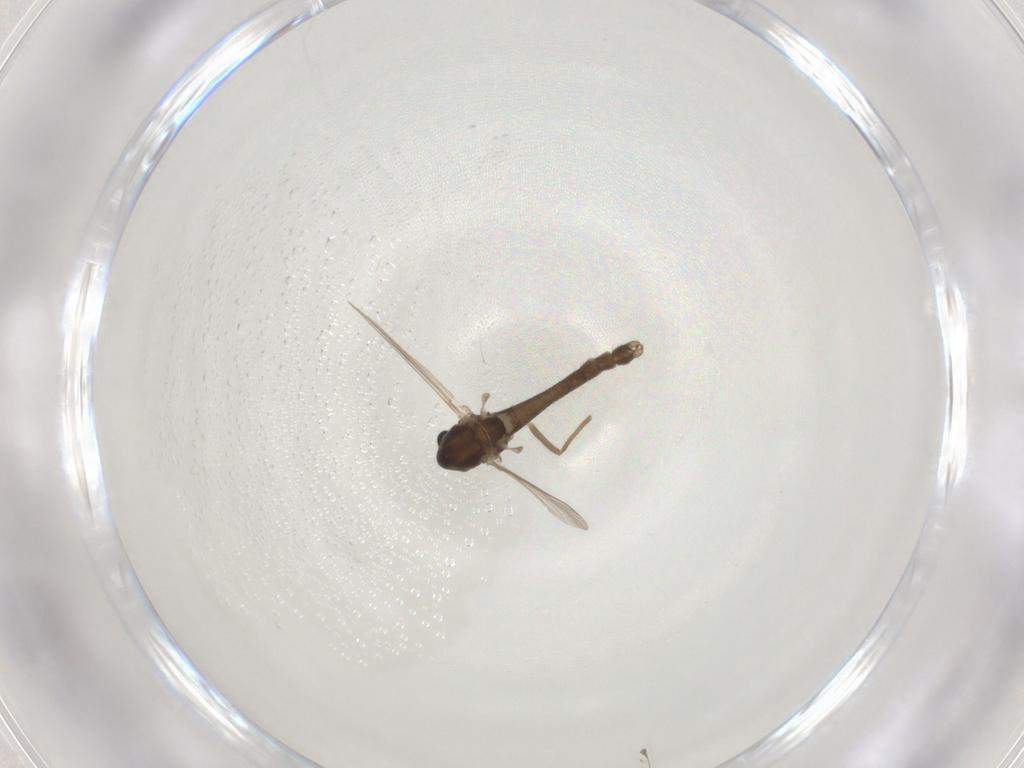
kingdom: Animalia
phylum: Arthropoda
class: Insecta
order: Diptera
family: Chironomidae
